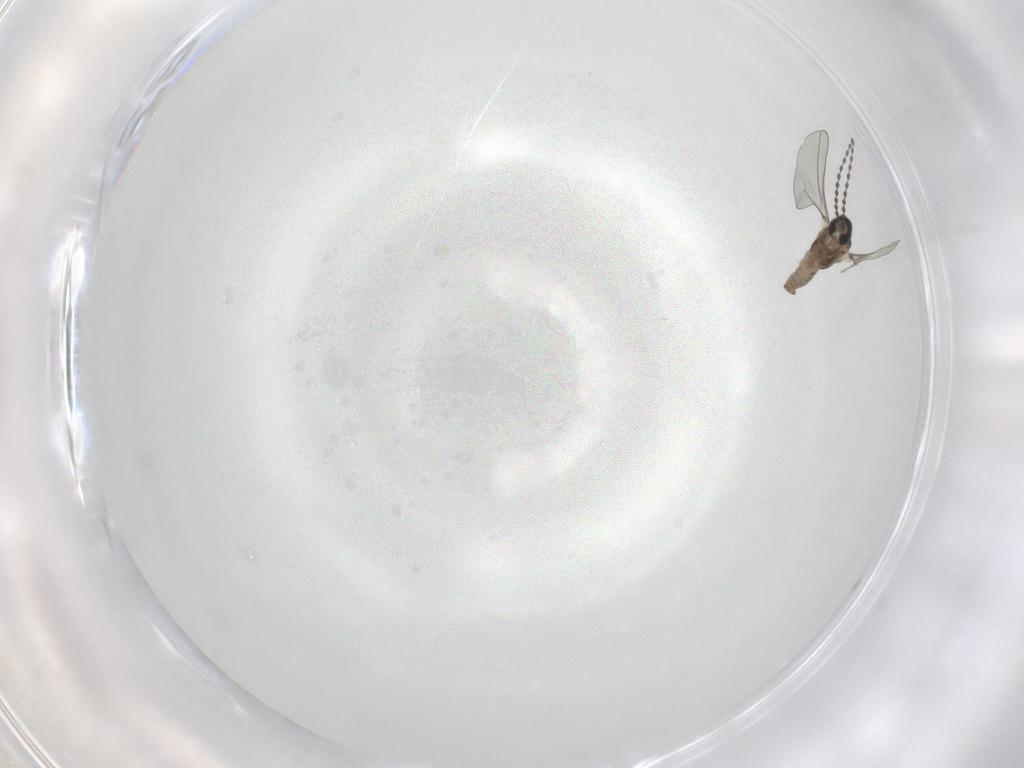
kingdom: Animalia
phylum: Arthropoda
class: Insecta
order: Diptera
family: Cecidomyiidae
